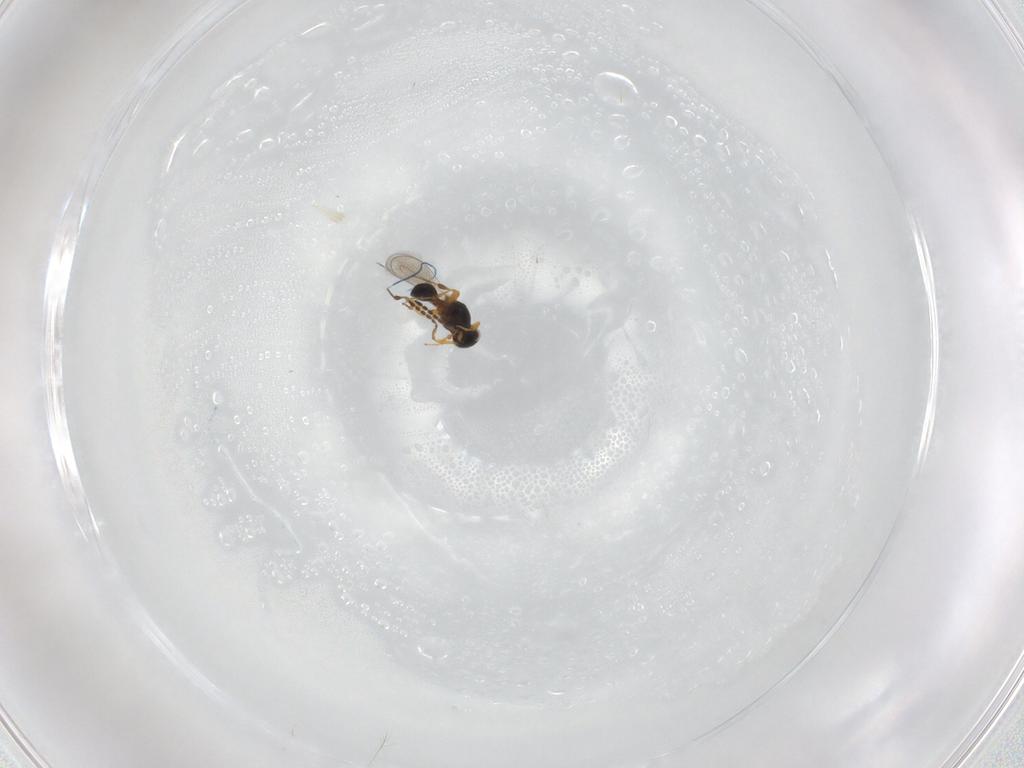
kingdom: Animalia
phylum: Arthropoda
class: Insecta
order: Hymenoptera
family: Platygastridae
